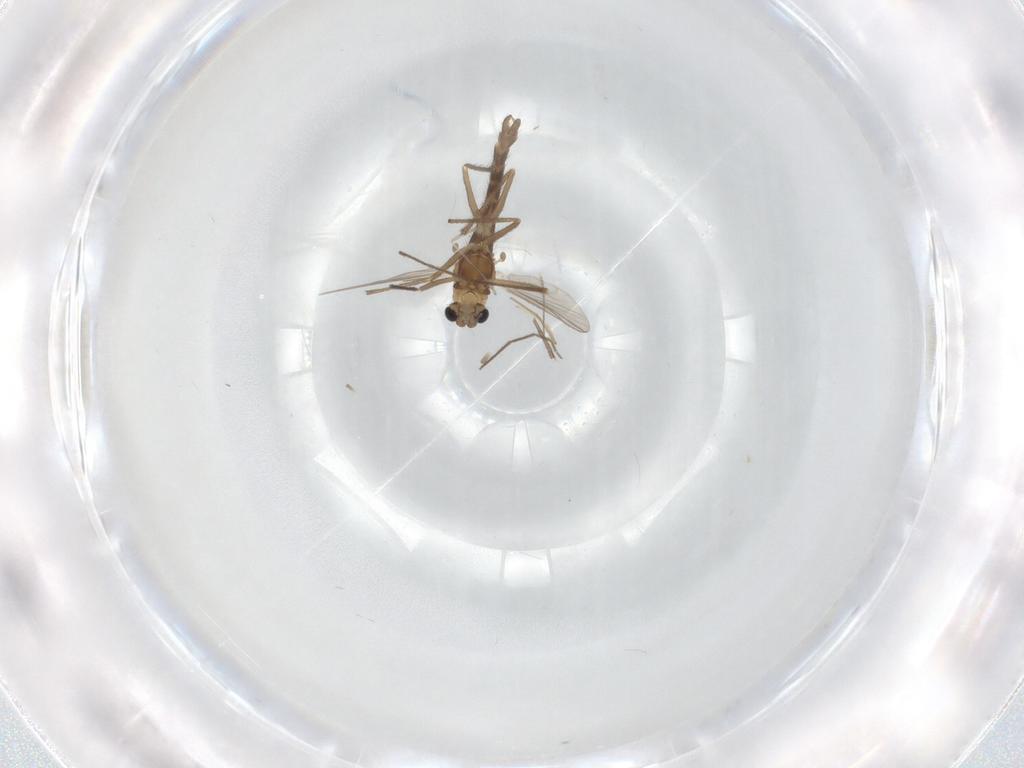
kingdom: Animalia
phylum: Arthropoda
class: Insecta
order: Diptera
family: Chironomidae
